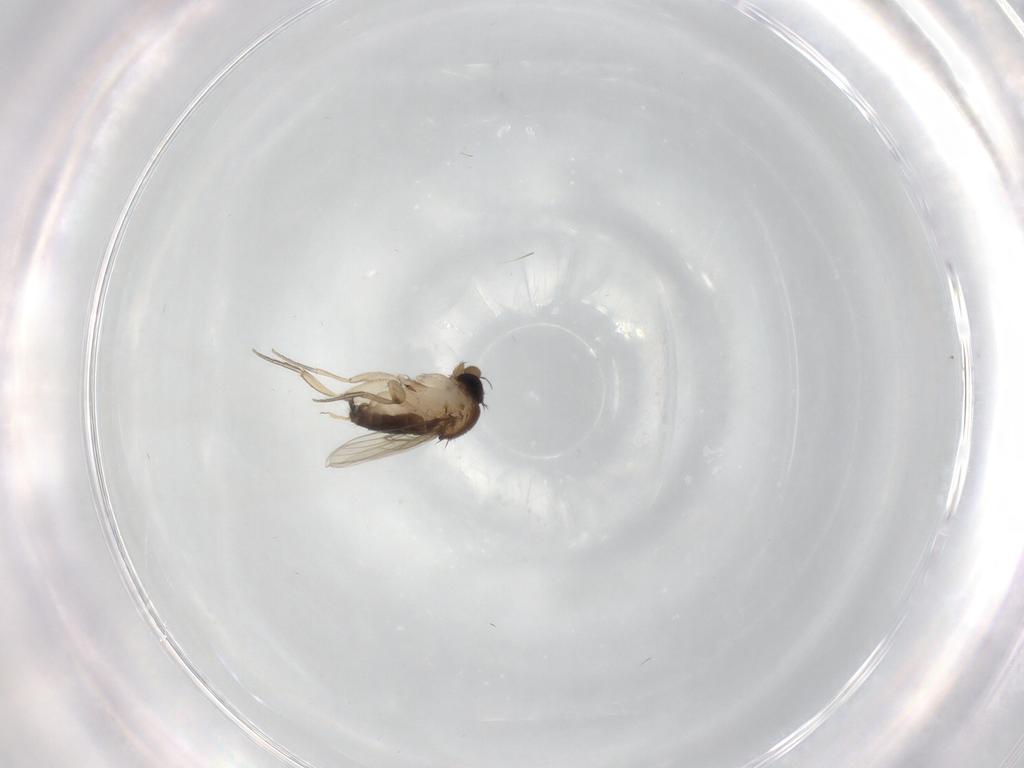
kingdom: Animalia
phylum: Arthropoda
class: Insecta
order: Diptera
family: Phoridae
